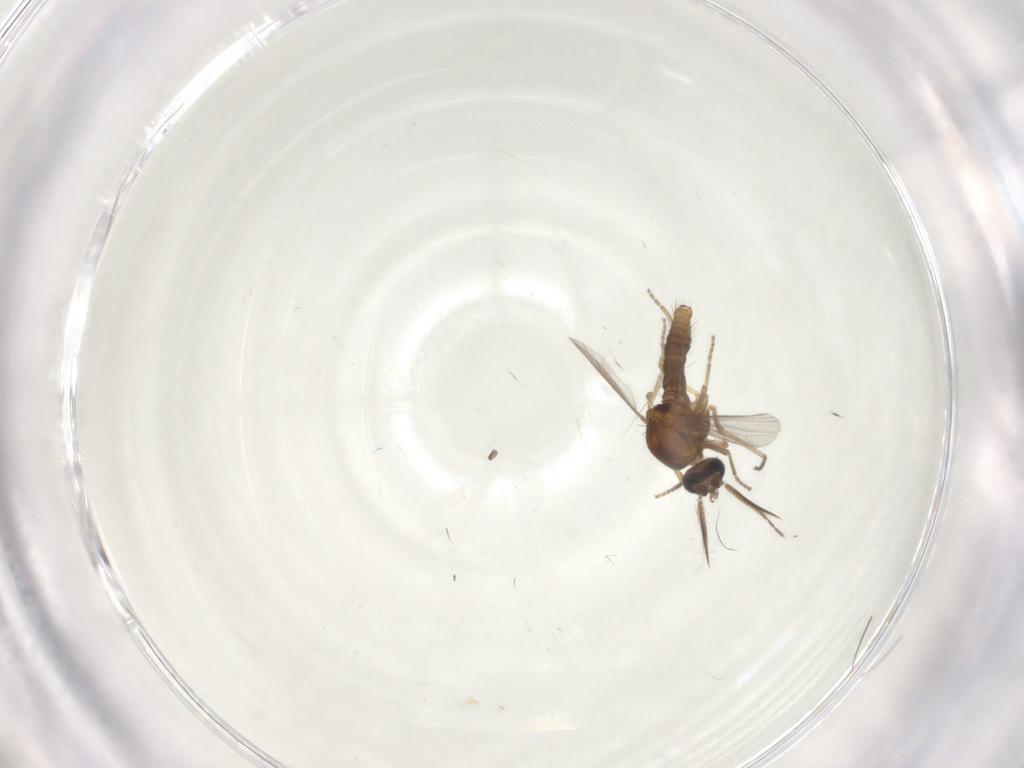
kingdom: Animalia
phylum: Arthropoda
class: Insecta
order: Diptera
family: Ceratopogonidae
